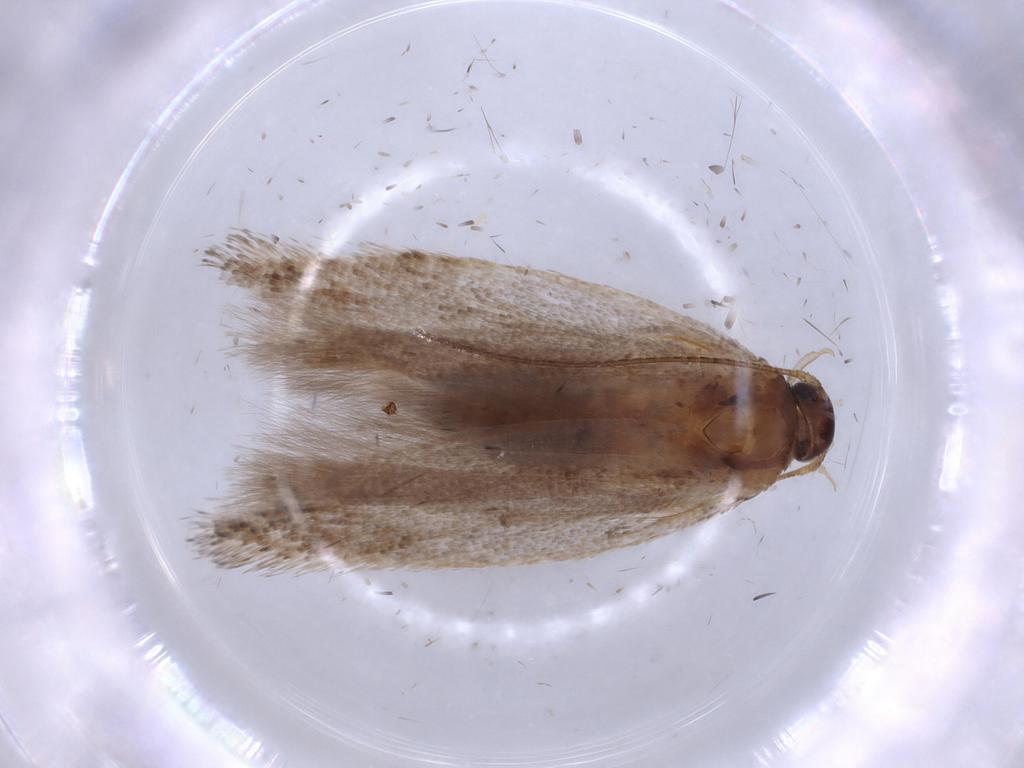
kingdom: Animalia
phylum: Arthropoda
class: Insecta
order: Lepidoptera
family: Gelechiidae
